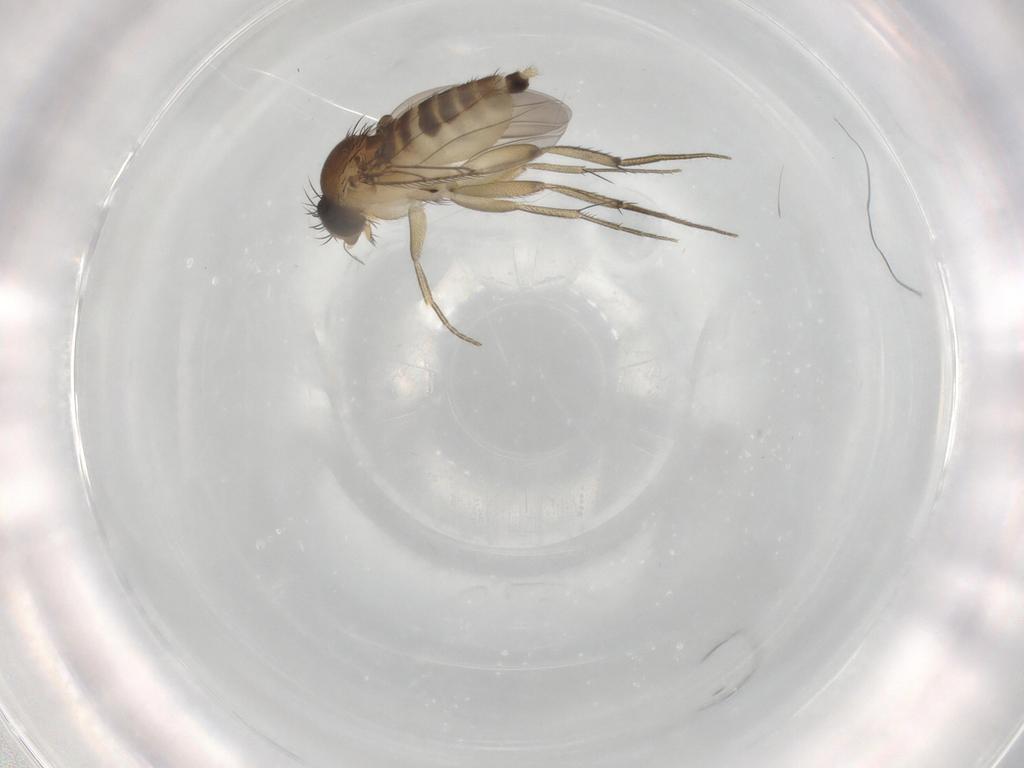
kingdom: Animalia
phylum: Arthropoda
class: Insecta
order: Diptera
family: Phoridae
